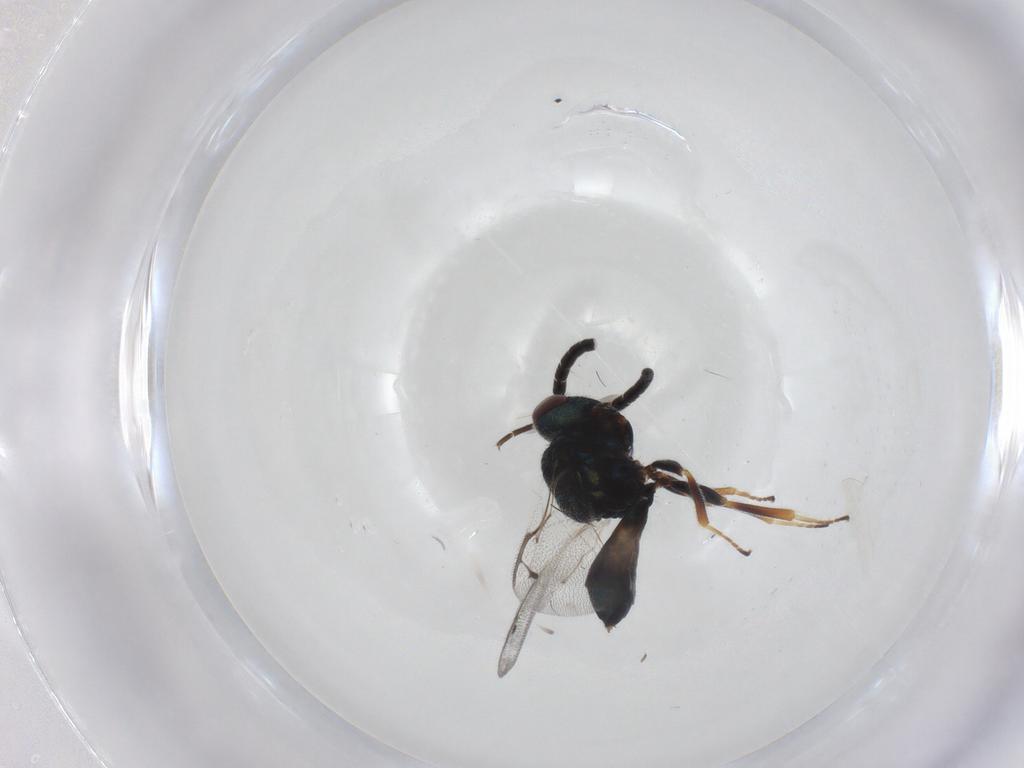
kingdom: Animalia
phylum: Arthropoda
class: Insecta
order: Hymenoptera
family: Pteromalidae
